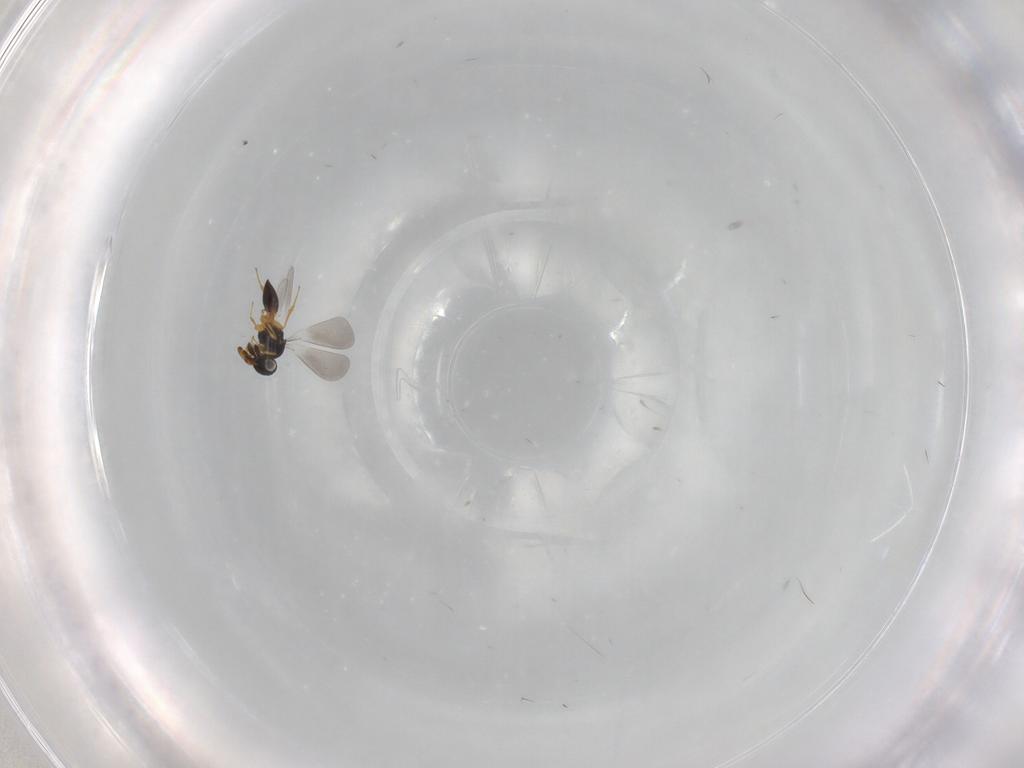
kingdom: Animalia
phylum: Arthropoda
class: Insecta
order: Hymenoptera
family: Platygastridae
